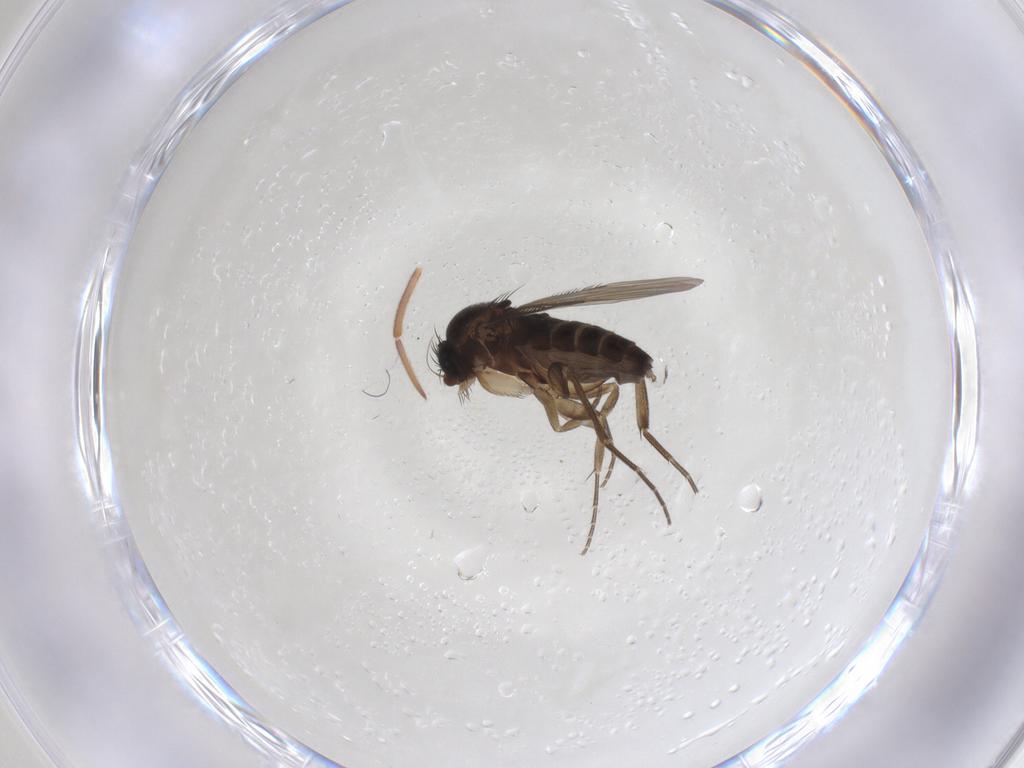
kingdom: Animalia
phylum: Arthropoda
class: Insecta
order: Diptera
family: Phoridae
